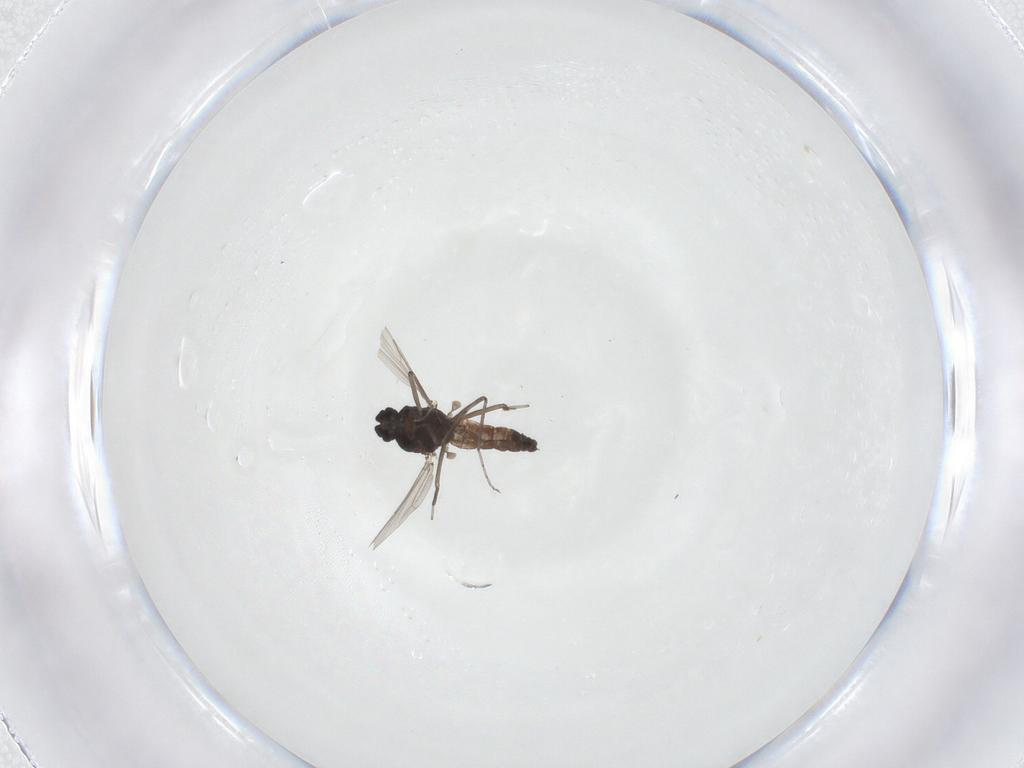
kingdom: Animalia
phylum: Arthropoda
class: Insecta
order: Diptera
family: Ceratopogonidae
